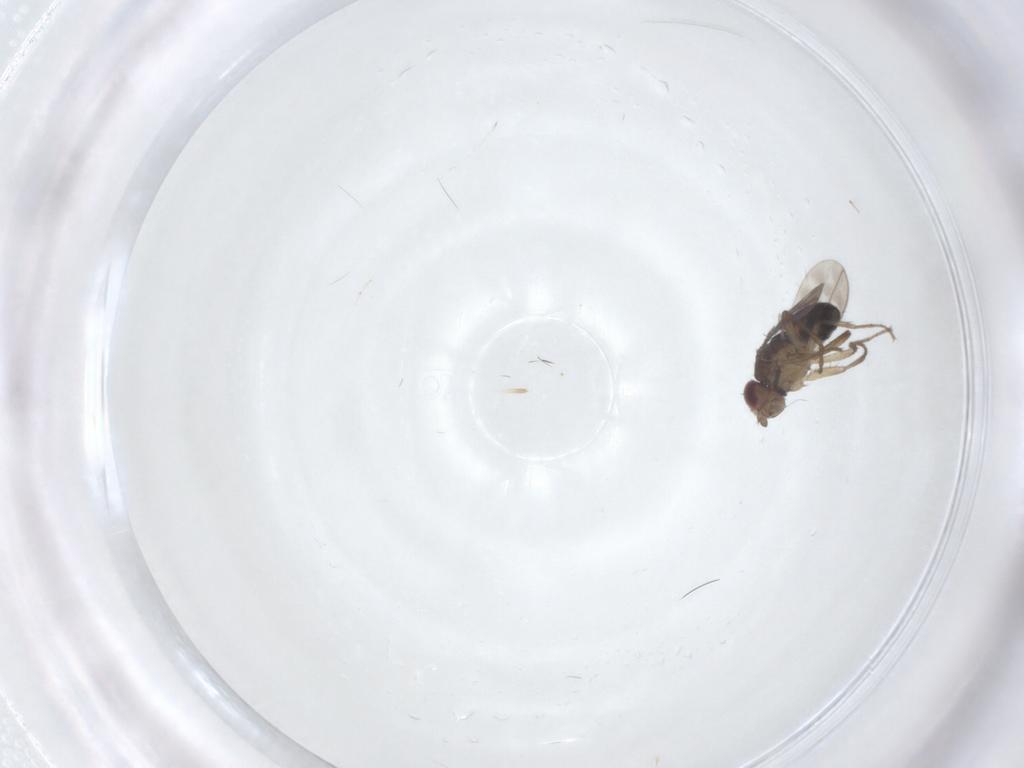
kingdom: Animalia
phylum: Arthropoda
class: Insecta
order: Diptera
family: Sphaeroceridae
